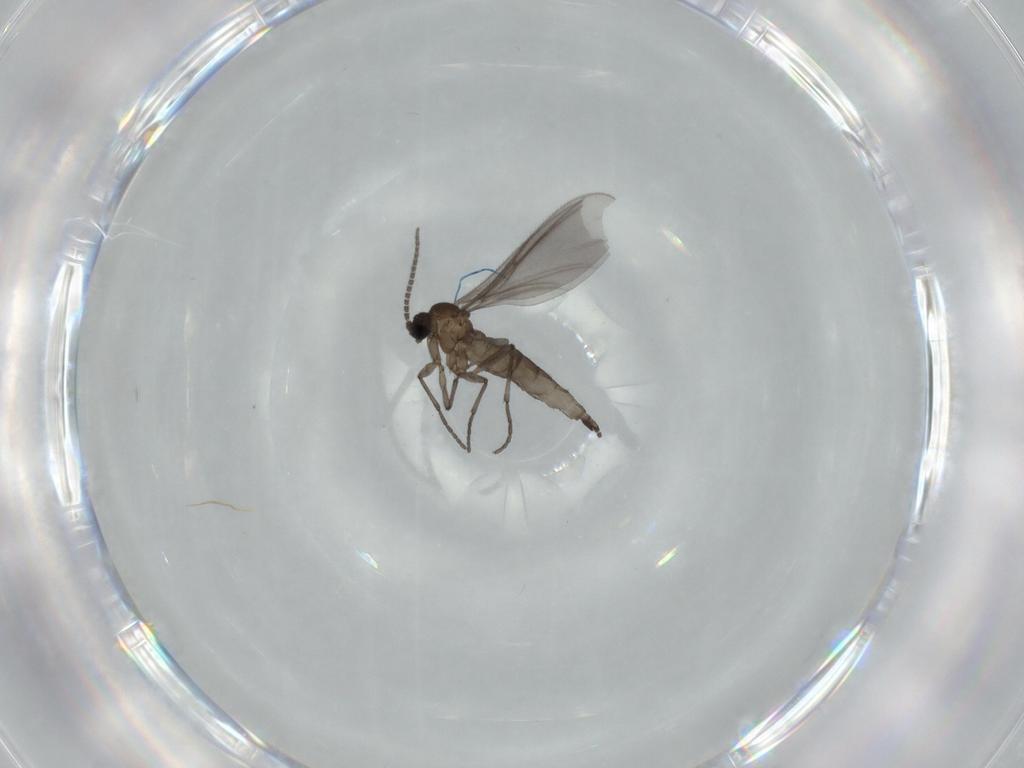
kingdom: Animalia
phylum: Arthropoda
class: Insecta
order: Diptera
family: Sciaridae
